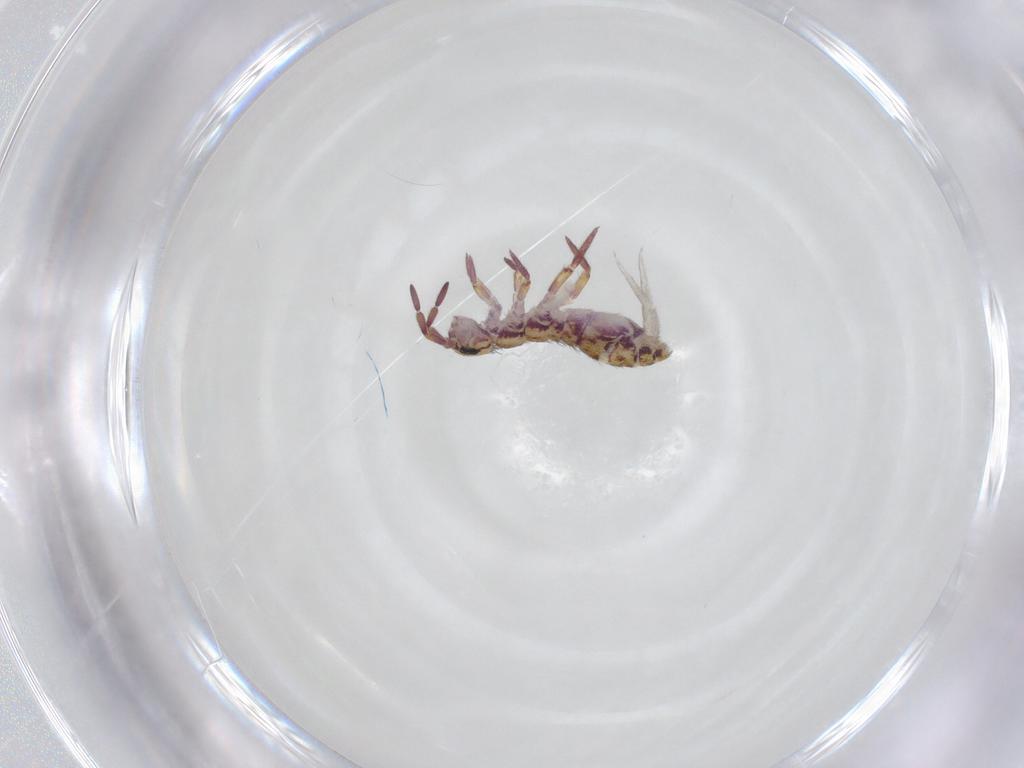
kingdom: Animalia
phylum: Arthropoda
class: Collembola
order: Entomobryomorpha
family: Isotomidae
